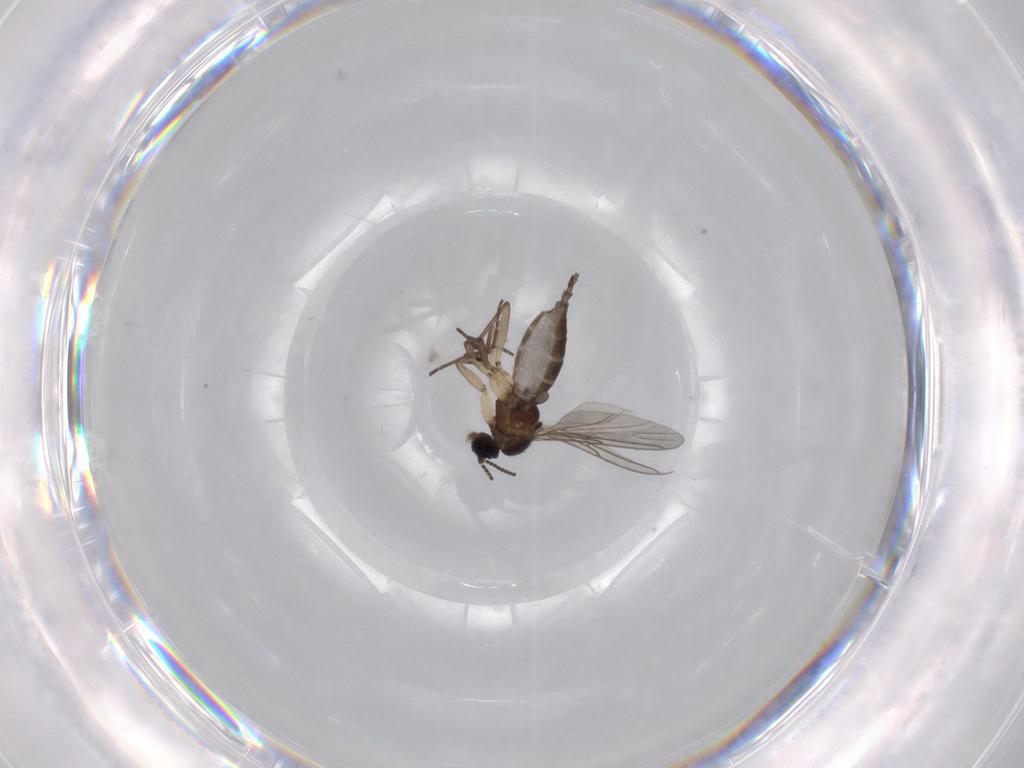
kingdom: Animalia
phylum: Arthropoda
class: Insecta
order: Diptera
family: Sciaridae
